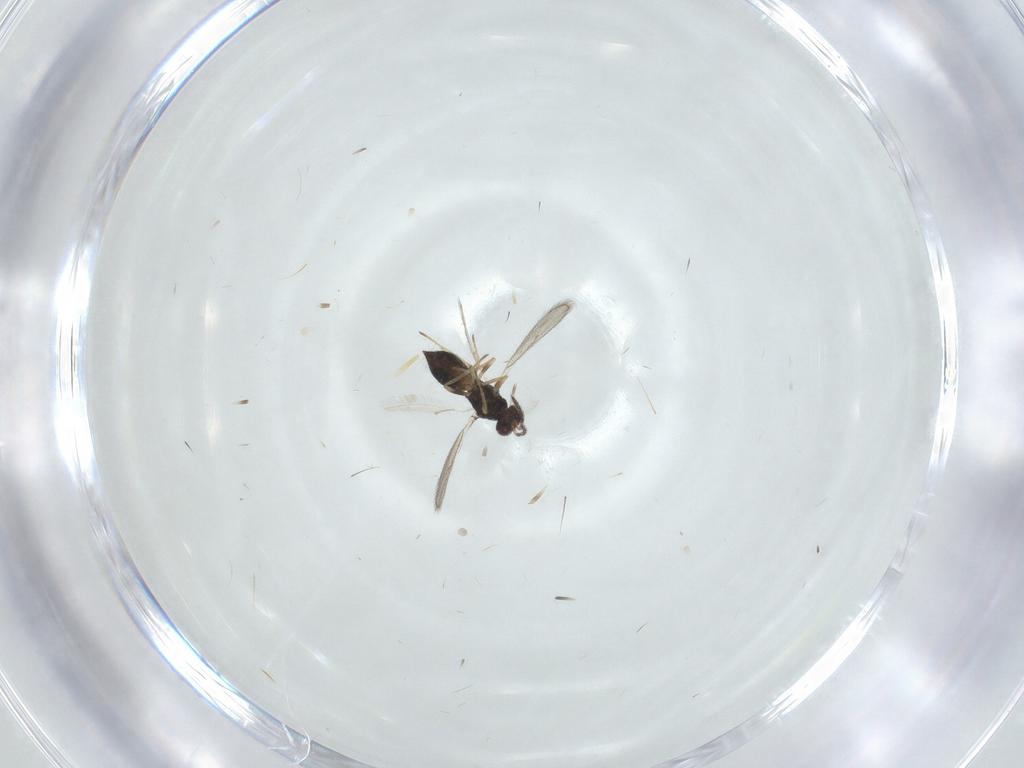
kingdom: Animalia
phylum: Arthropoda
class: Insecta
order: Hymenoptera
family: Eulophidae
